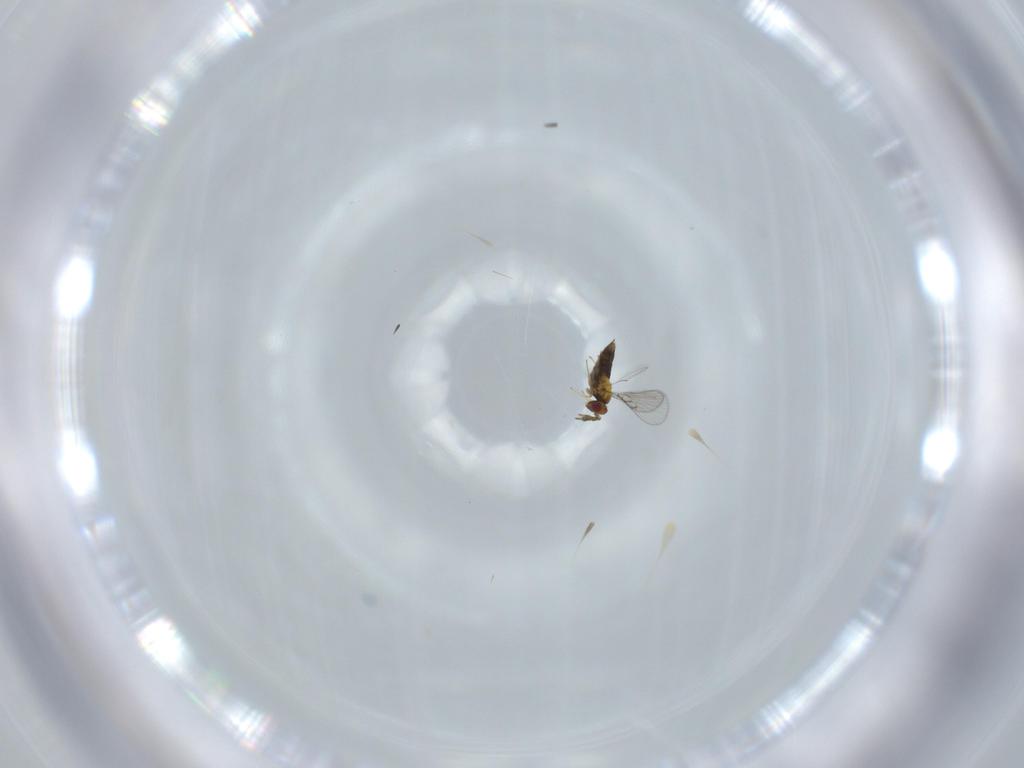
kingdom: Animalia
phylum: Arthropoda
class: Insecta
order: Hymenoptera
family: Trichogrammatidae
